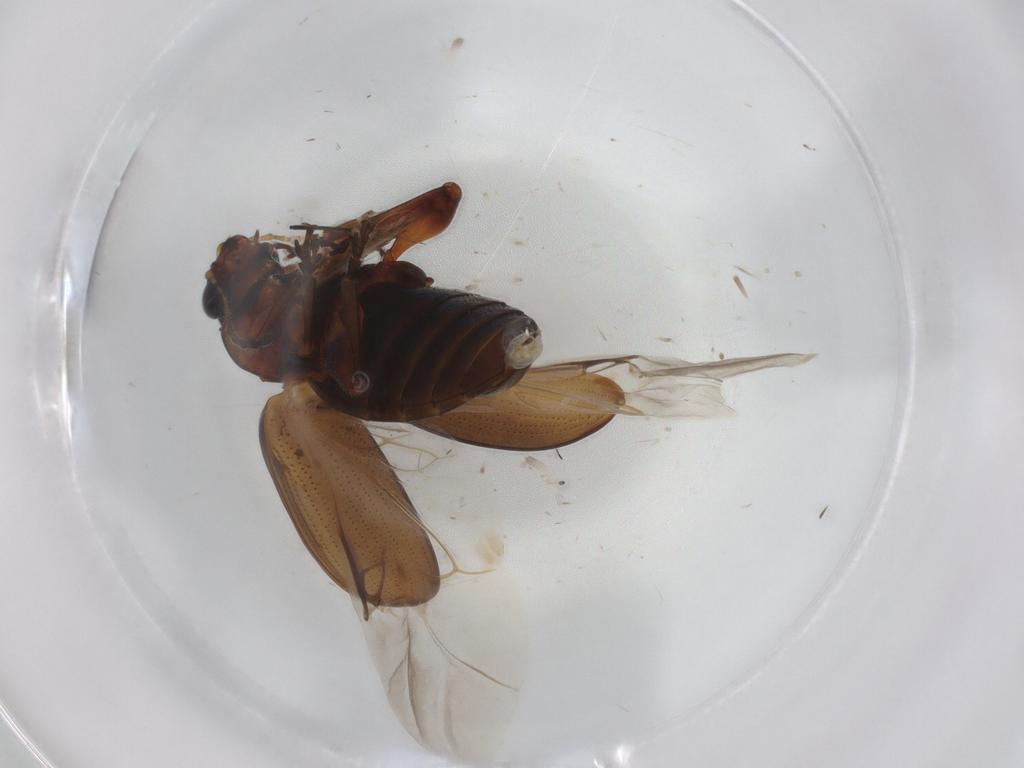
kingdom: Animalia
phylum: Arthropoda
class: Insecta
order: Coleoptera
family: Chrysomelidae
